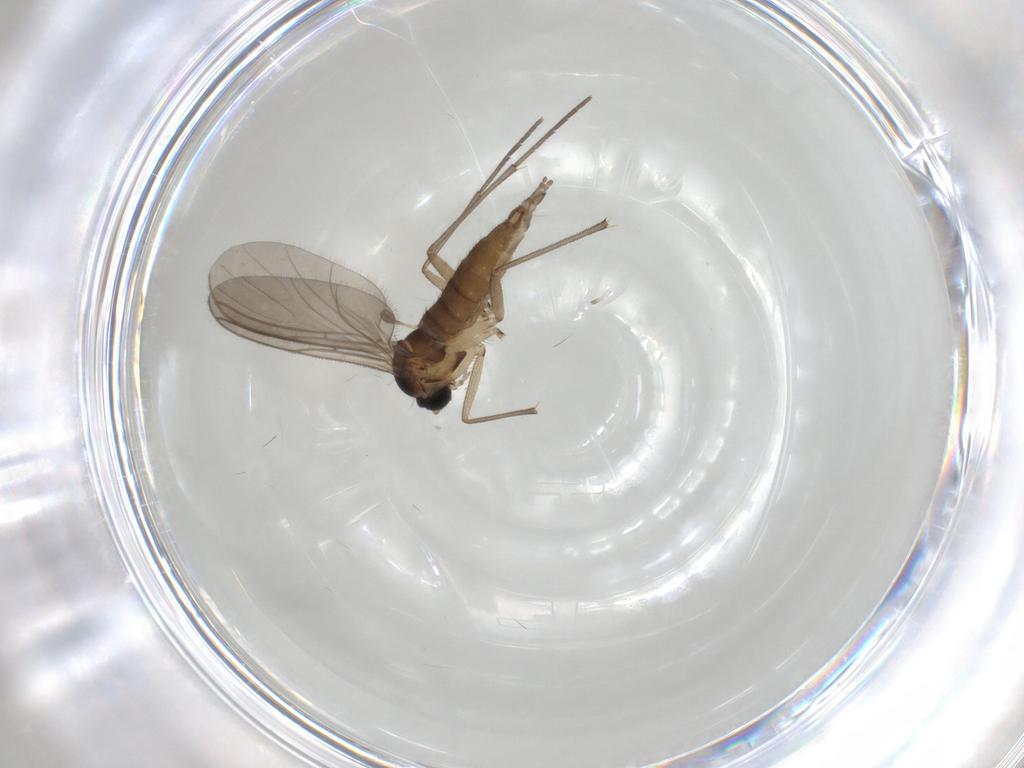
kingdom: Animalia
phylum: Arthropoda
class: Insecta
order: Diptera
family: Sciaridae
